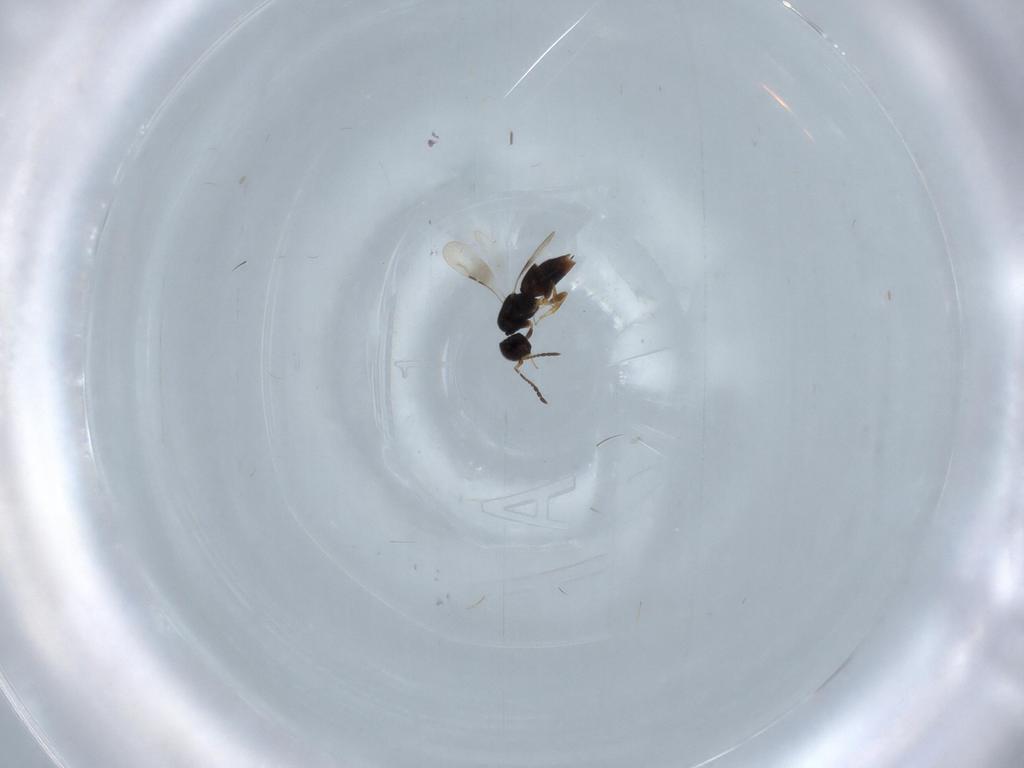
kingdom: Animalia
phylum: Arthropoda
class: Insecta
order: Hymenoptera
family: Ceraphronidae
